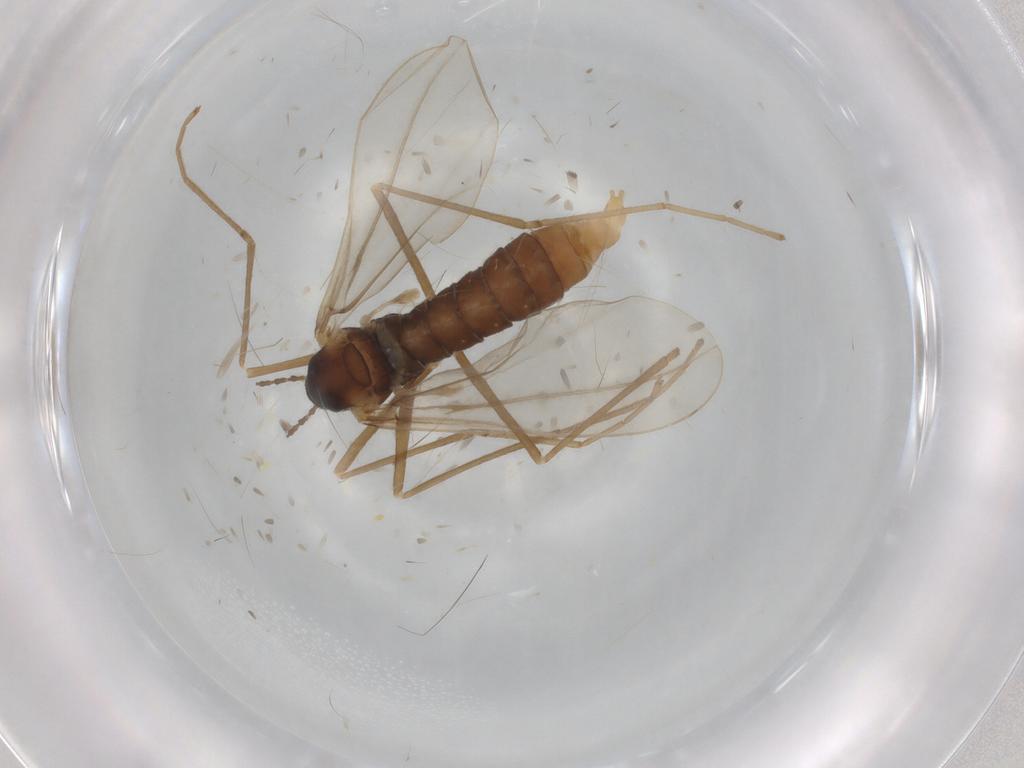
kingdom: Animalia
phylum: Arthropoda
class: Insecta
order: Diptera
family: Cecidomyiidae
